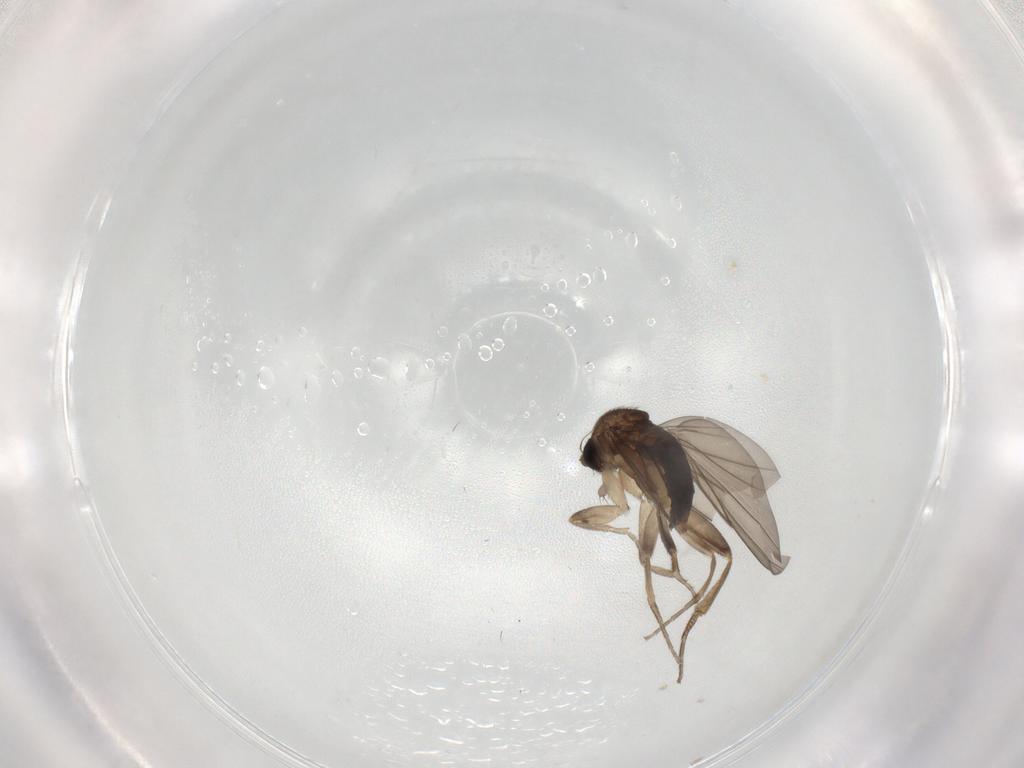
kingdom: Animalia
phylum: Arthropoda
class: Insecta
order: Diptera
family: Phoridae
